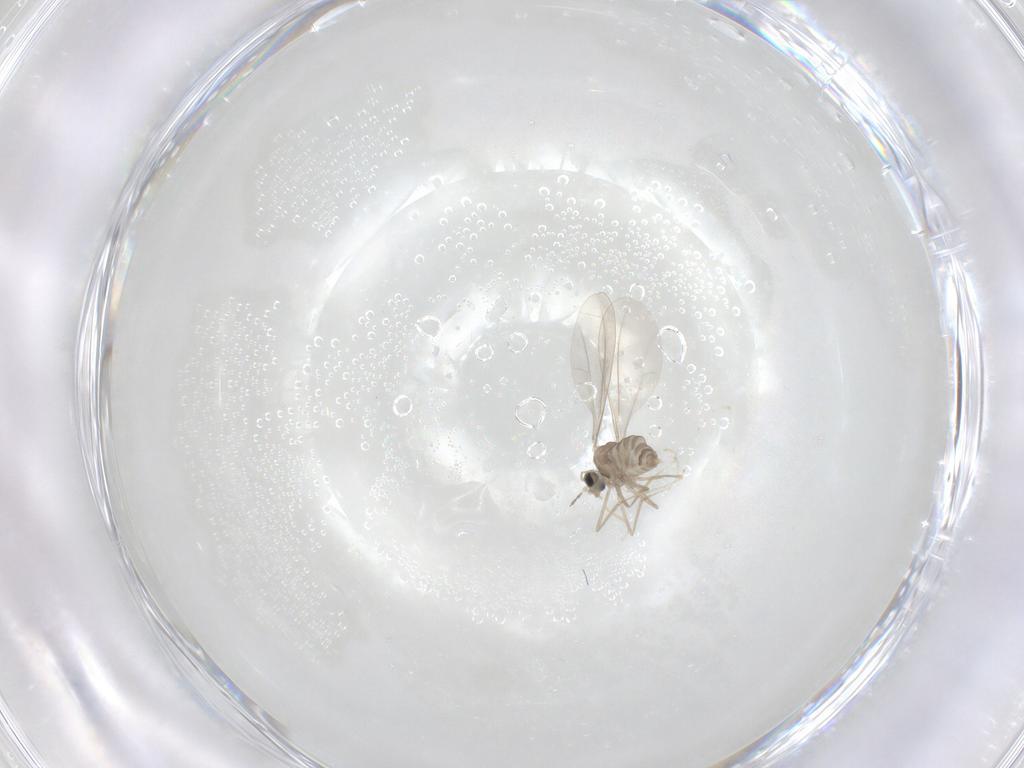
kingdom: Animalia
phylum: Arthropoda
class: Insecta
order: Diptera
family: Cecidomyiidae
